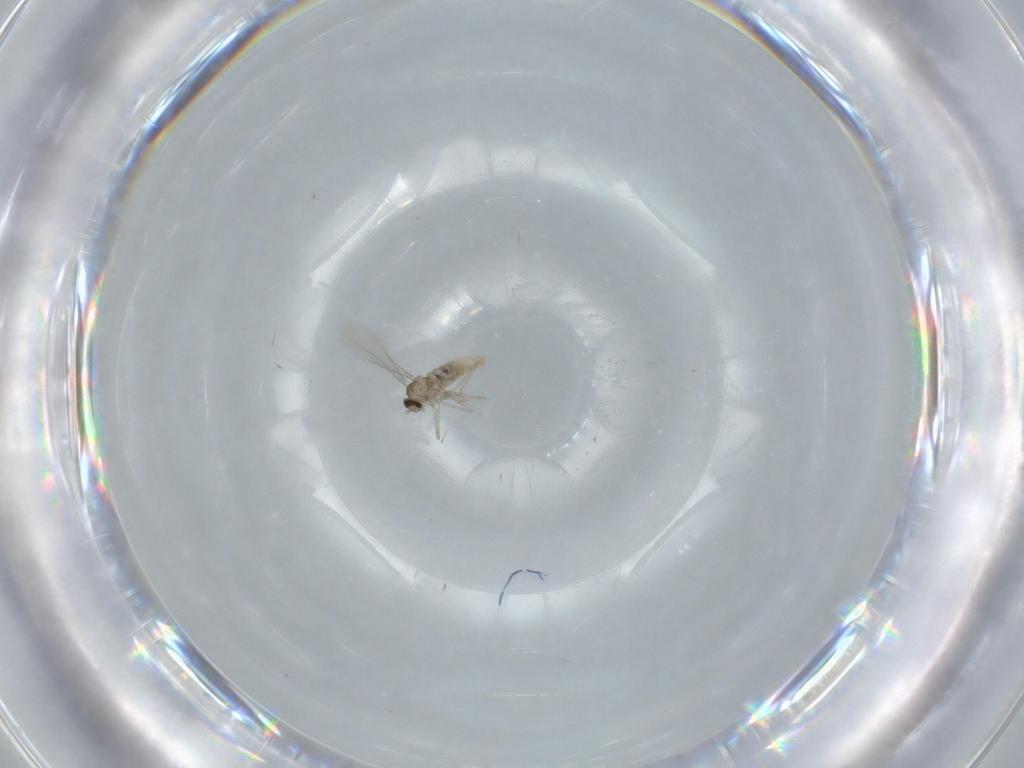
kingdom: Animalia
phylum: Arthropoda
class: Insecta
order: Diptera
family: Cecidomyiidae
